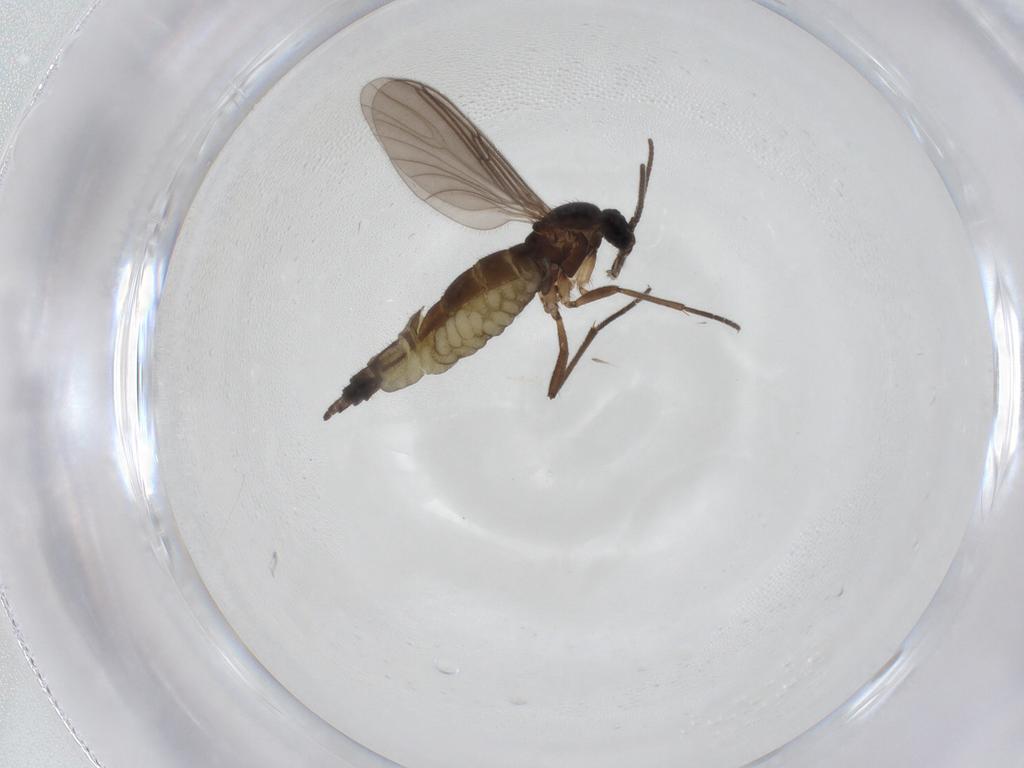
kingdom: Animalia
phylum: Arthropoda
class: Insecta
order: Diptera
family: Sciaridae
